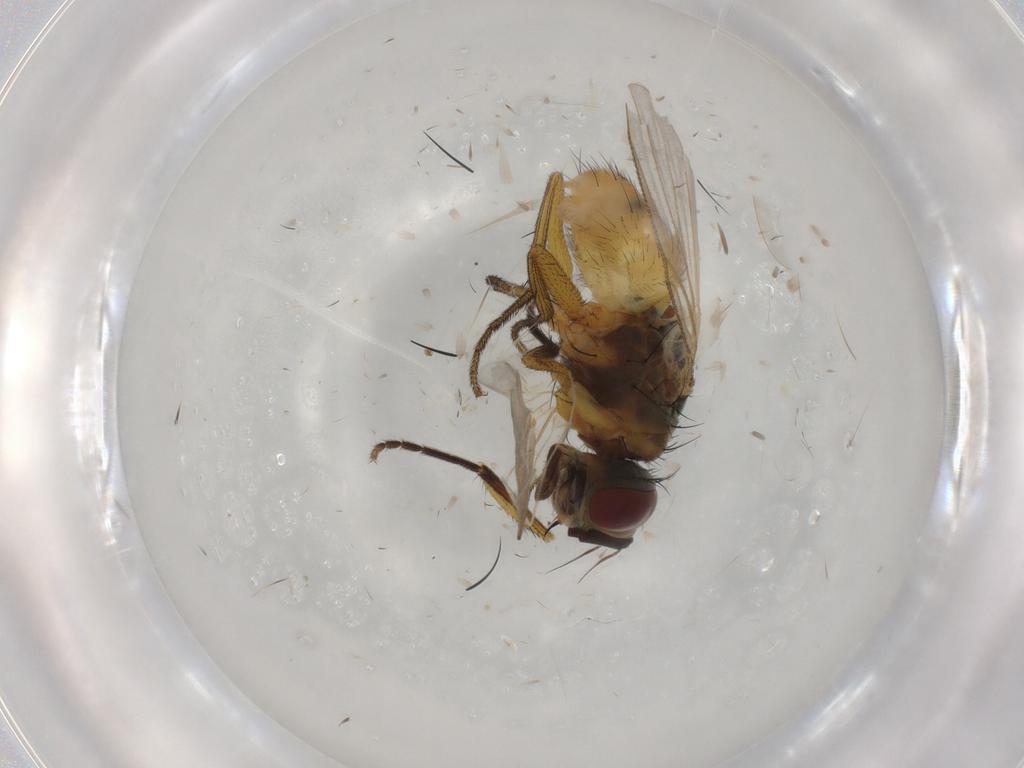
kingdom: Animalia
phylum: Arthropoda
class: Insecta
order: Diptera
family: Muscidae
